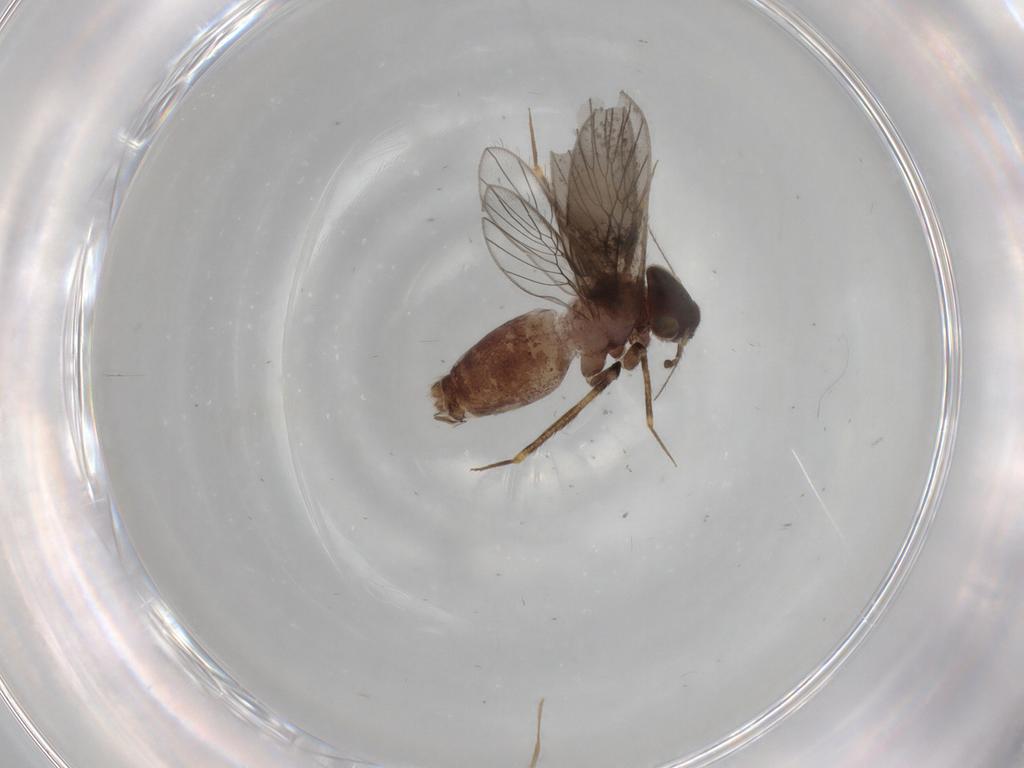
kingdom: Animalia
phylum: Arthropoda
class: Insecta
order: Psocodea
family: Lepidopsocidae
